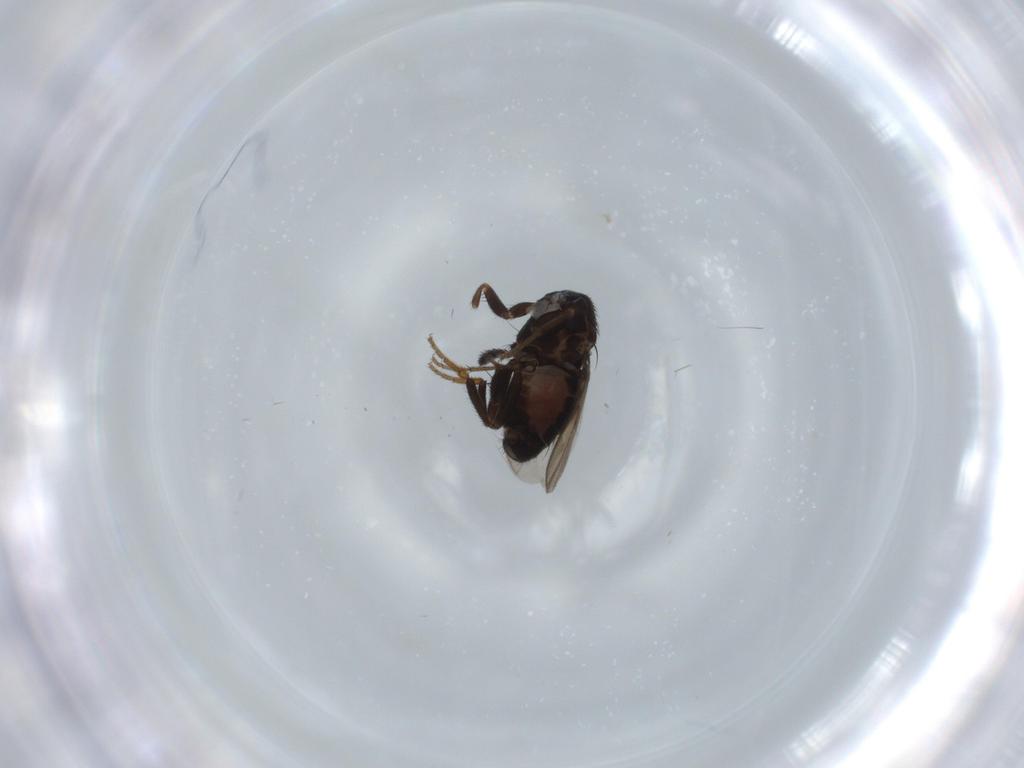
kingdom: Animalia
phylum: Arthropoda
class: Insecta
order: Diptera
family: Sphaeroceridae
